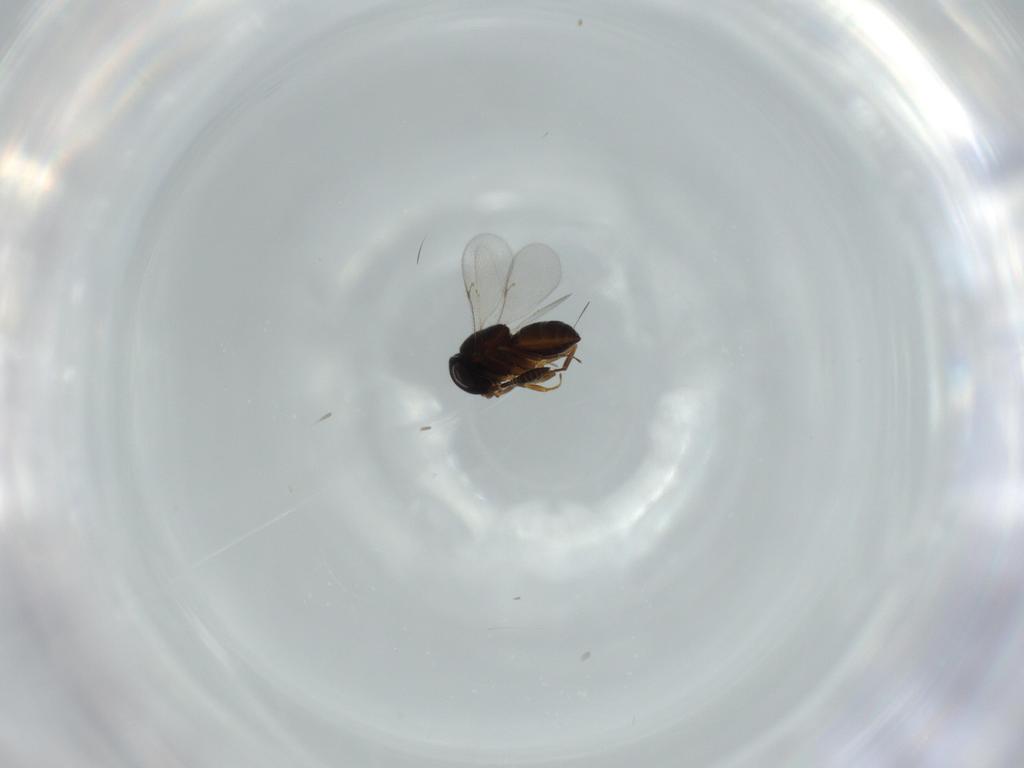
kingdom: Animalia
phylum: Arthropoda
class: Insecta
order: Hymenoptera
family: Scelionidae
